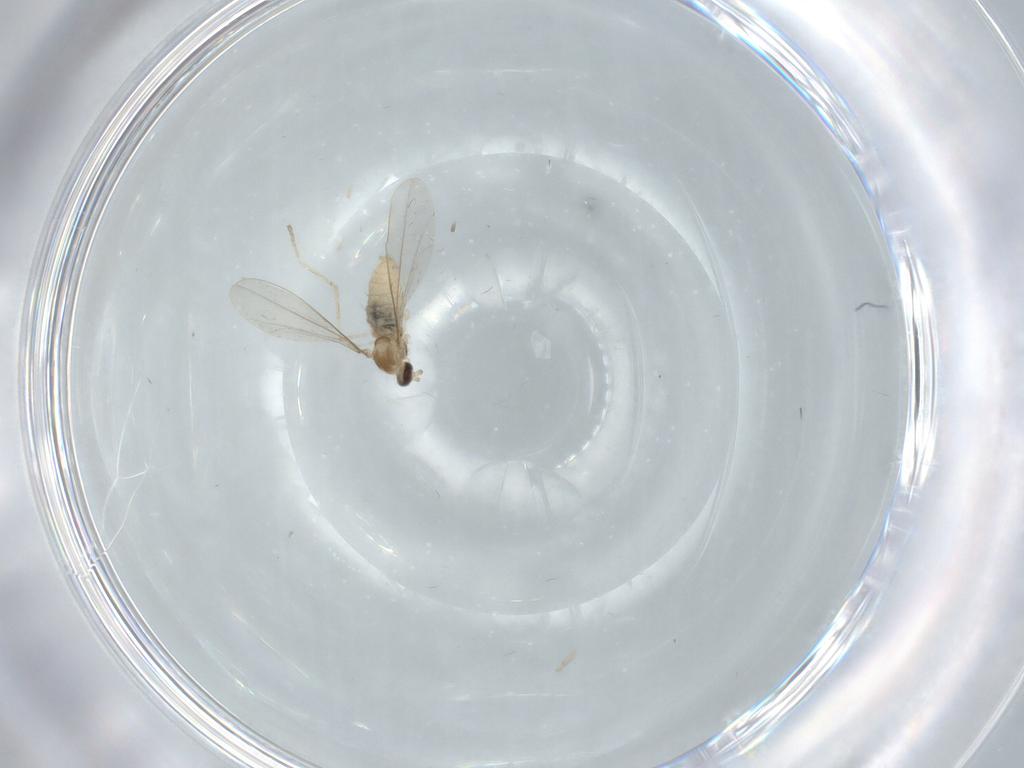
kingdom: Animalia
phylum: Arthropoda
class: Insecta
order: Diptera
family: Cecidomyiidae
